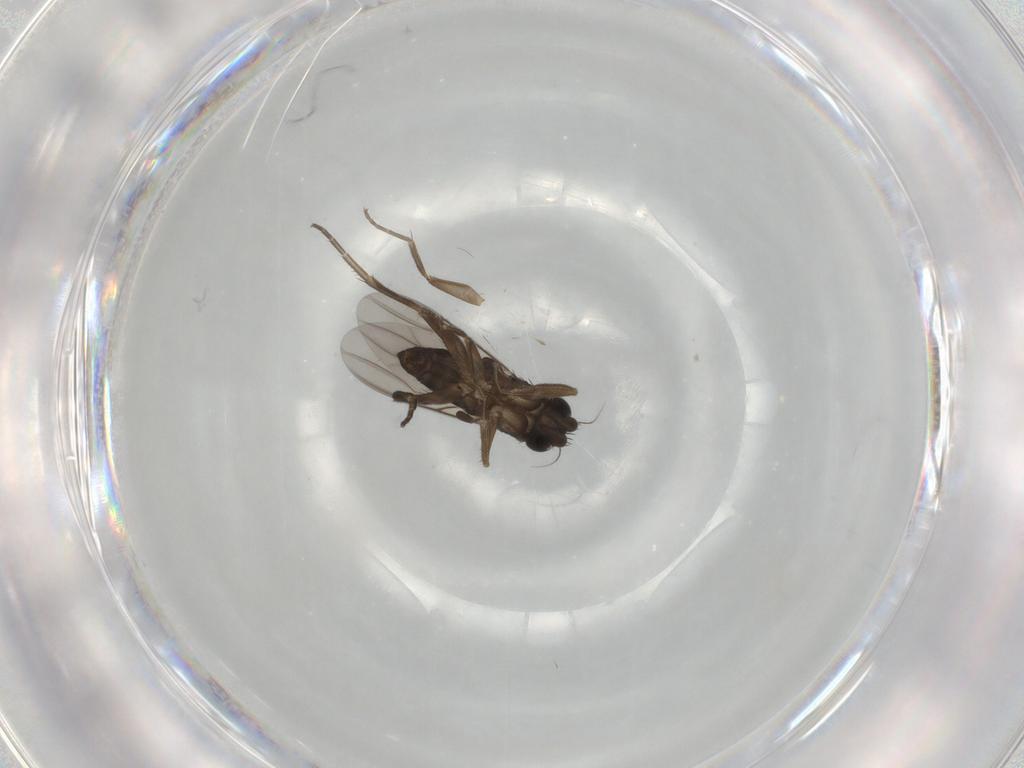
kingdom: Animalia
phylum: Arthropoda
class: Insecta
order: Diptera
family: Phoridae
